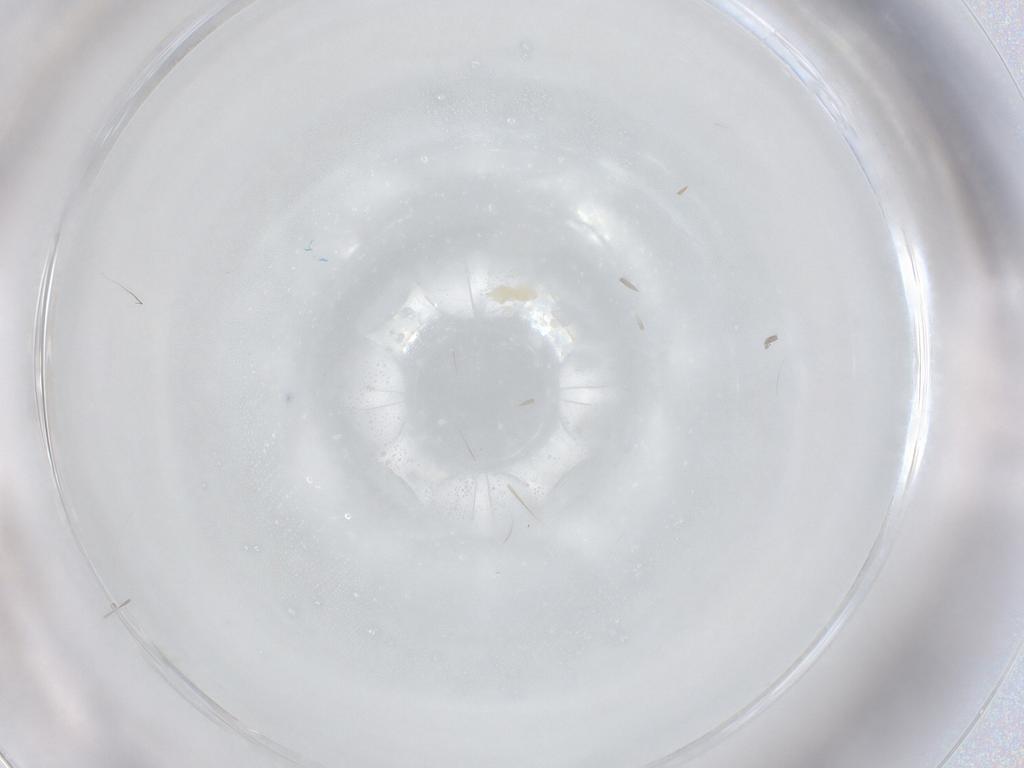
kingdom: Animalia
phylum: Arthropoda
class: Arachnida
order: Trombidiformes
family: Eupodidae
